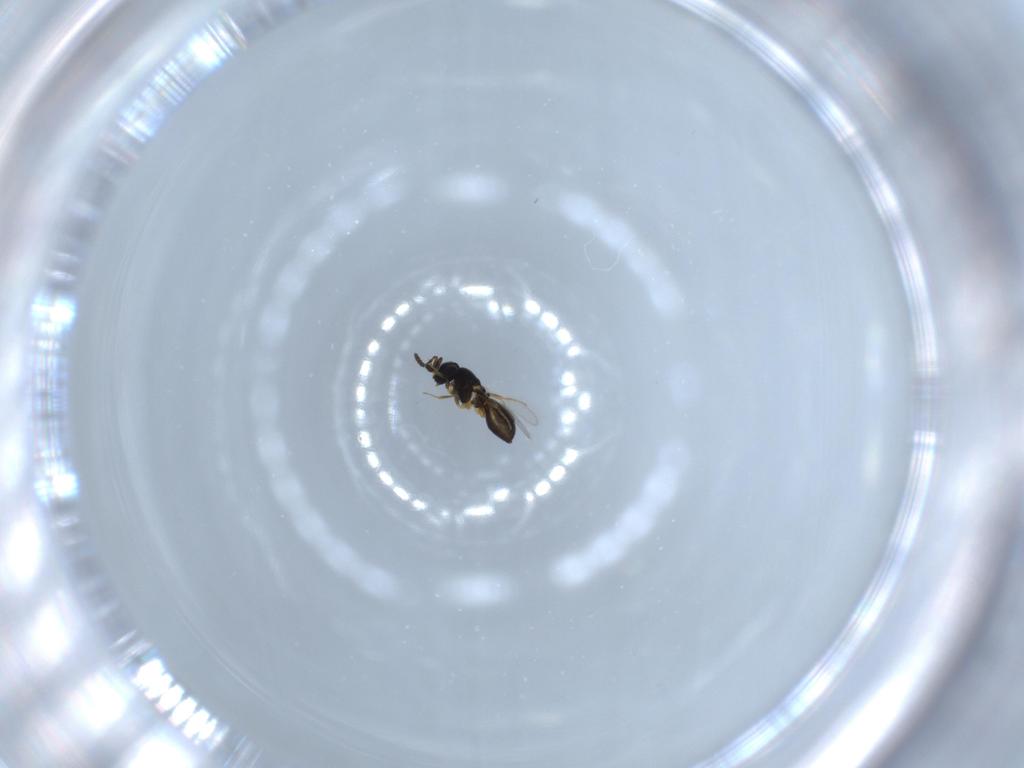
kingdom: Animalia
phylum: Arthropoda
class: Insecta
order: Hymenoptera
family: Scelionidae
